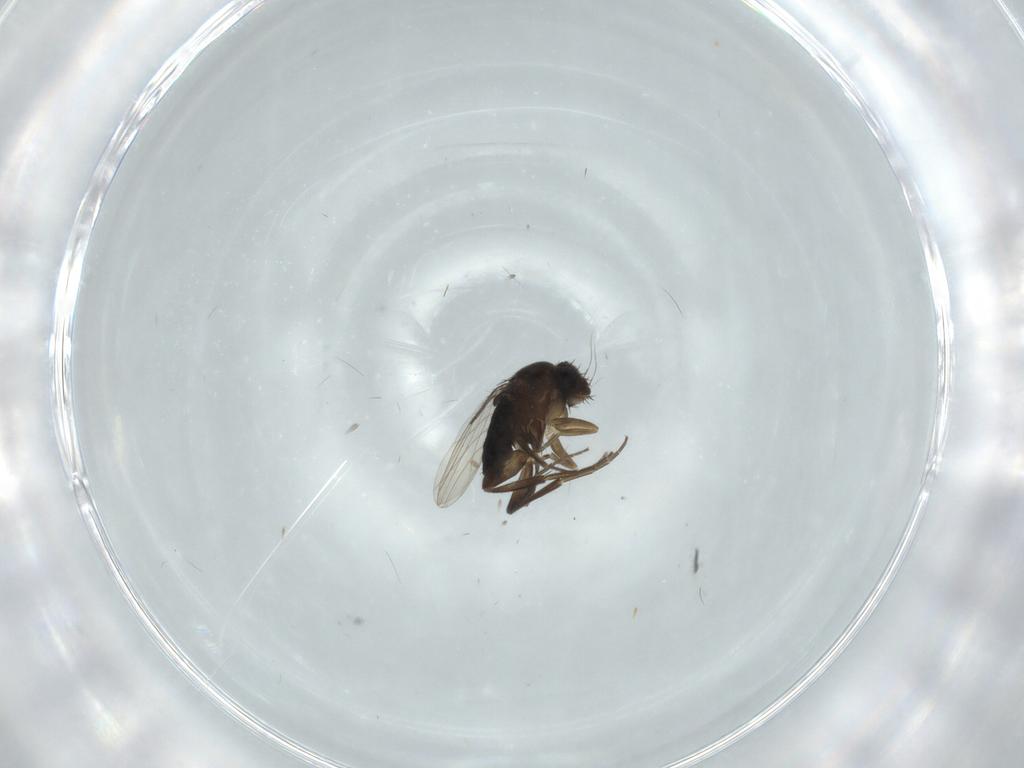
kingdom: Animalia
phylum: Arthropoda
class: Insecta
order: Diptera
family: Phoridae
